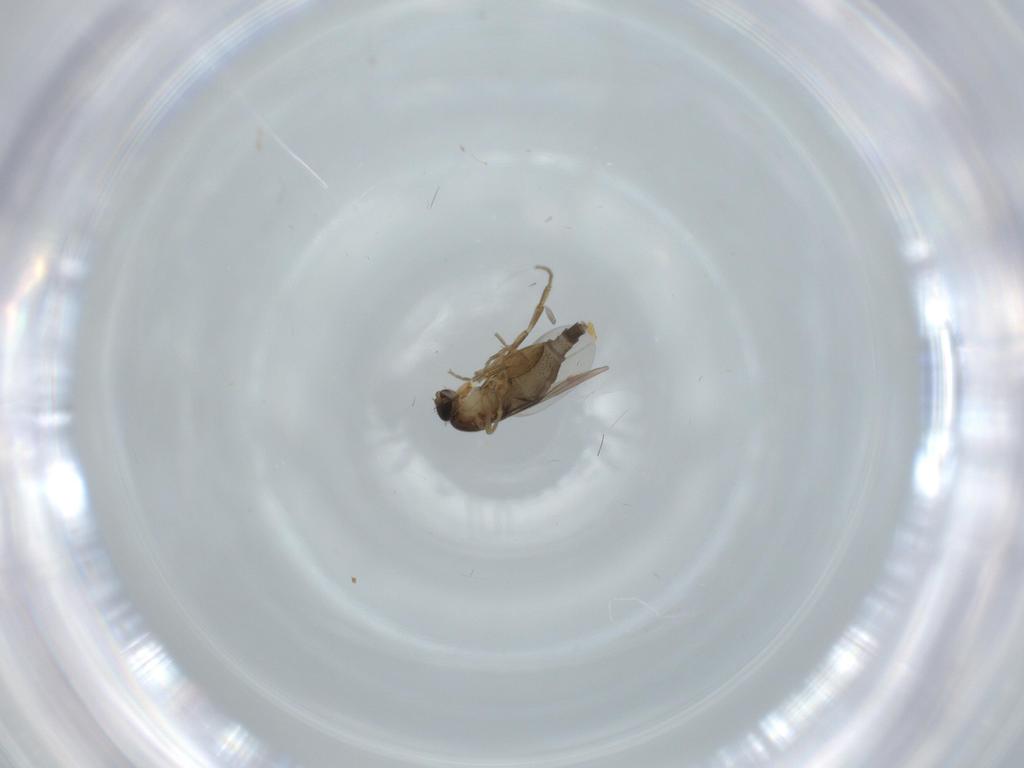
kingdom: Animalia
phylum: Arthropoda
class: Insecta
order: Diptera
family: Phoridae
